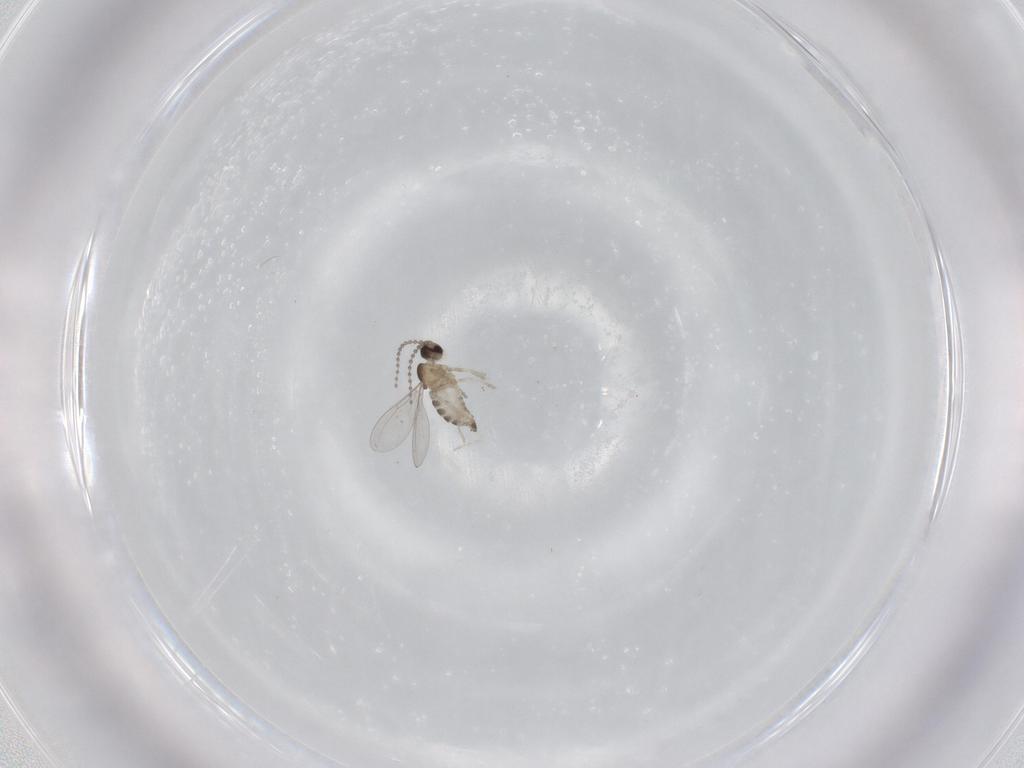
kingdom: Animalia
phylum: Arthropoda
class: Insecta
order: Diptera
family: Cecidomyiidae
